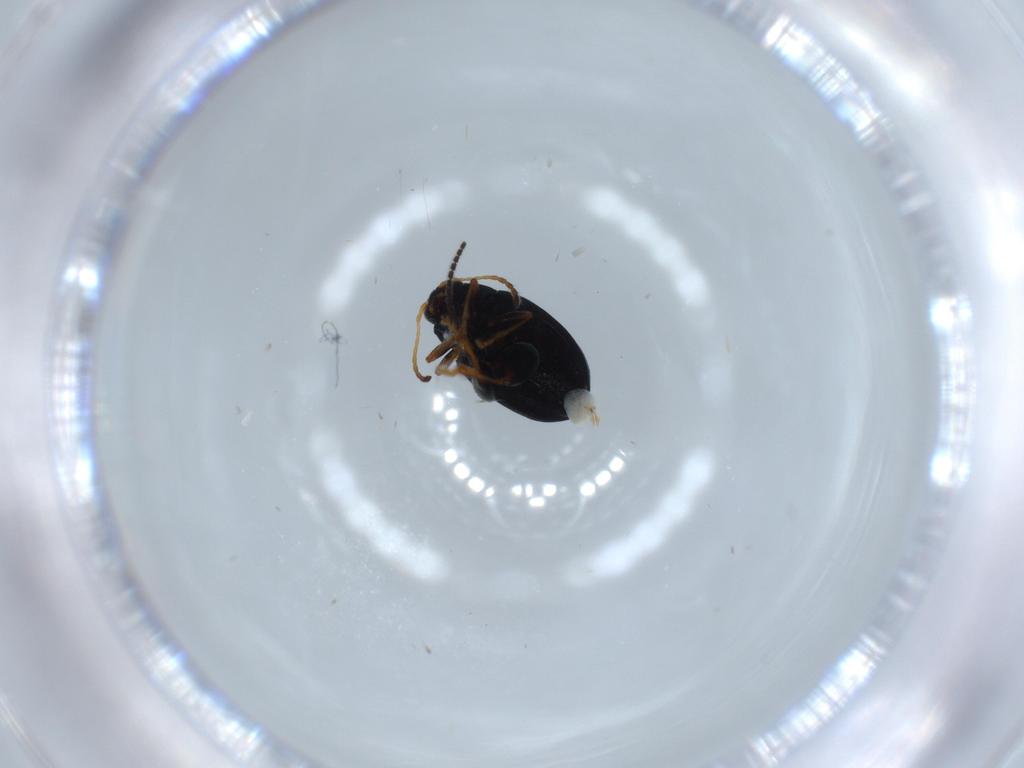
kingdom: Animalia
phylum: Arthropoda
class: Insecta
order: Coleoptera
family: Chrysomelidae
